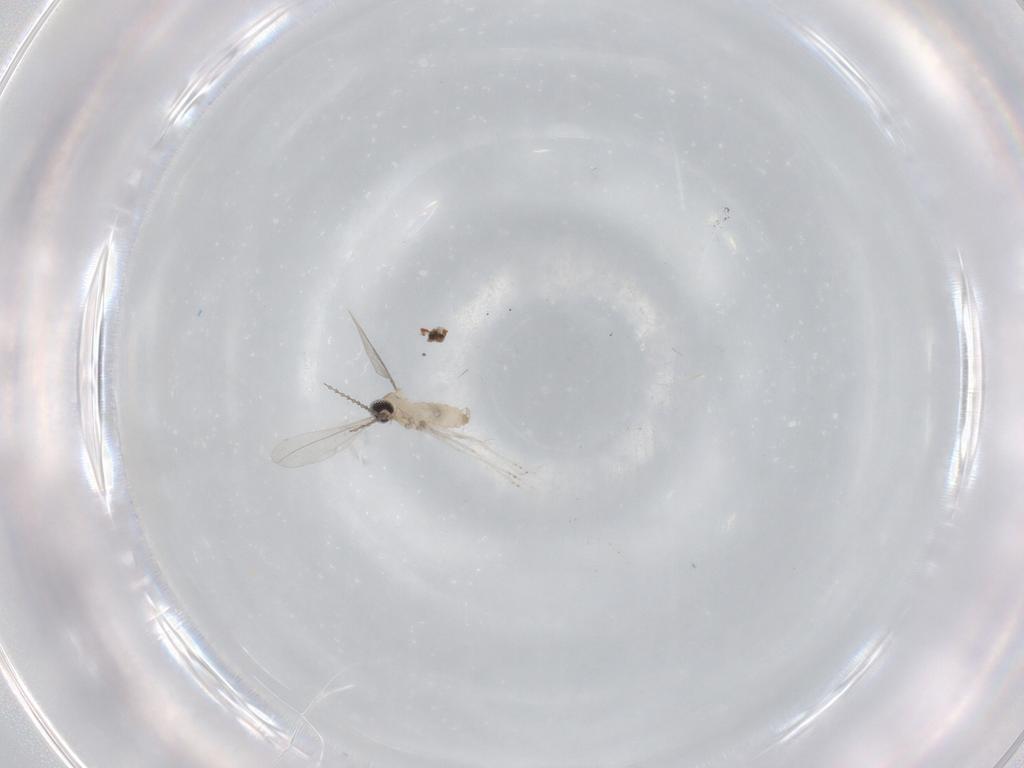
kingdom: Animalia
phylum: Arthropoda
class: Insecta
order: Diptera
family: Cecidomyiidae
